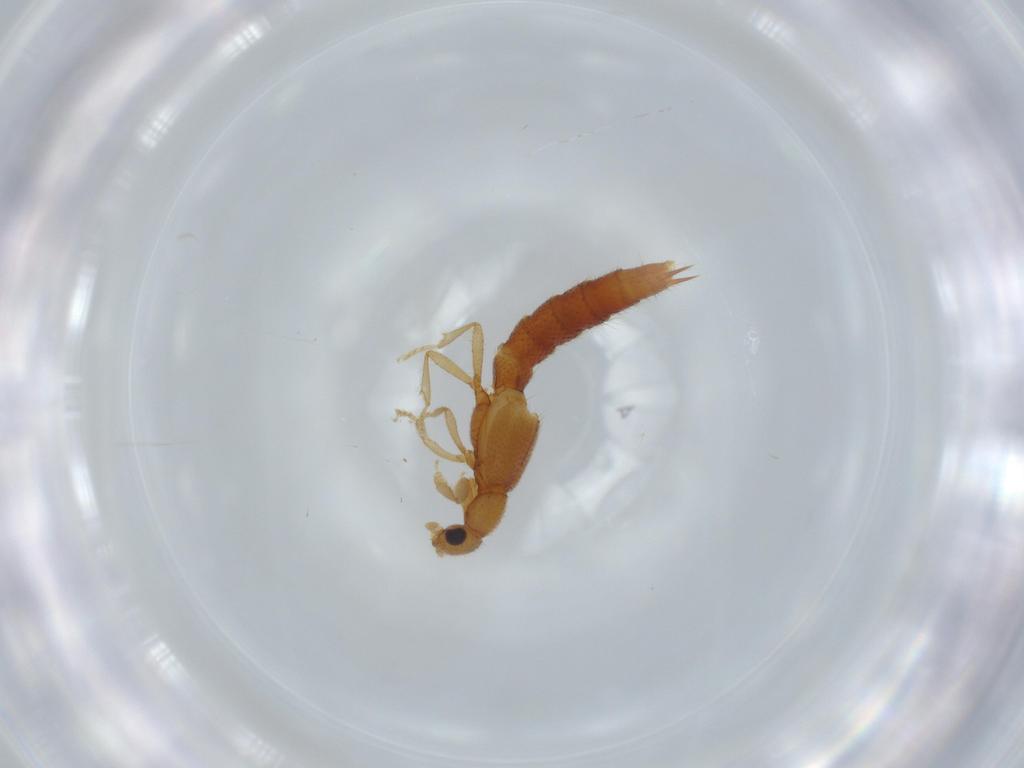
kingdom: Animalia
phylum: Arthropoda
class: Insecta
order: Coleoptera
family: Staphylinidae
